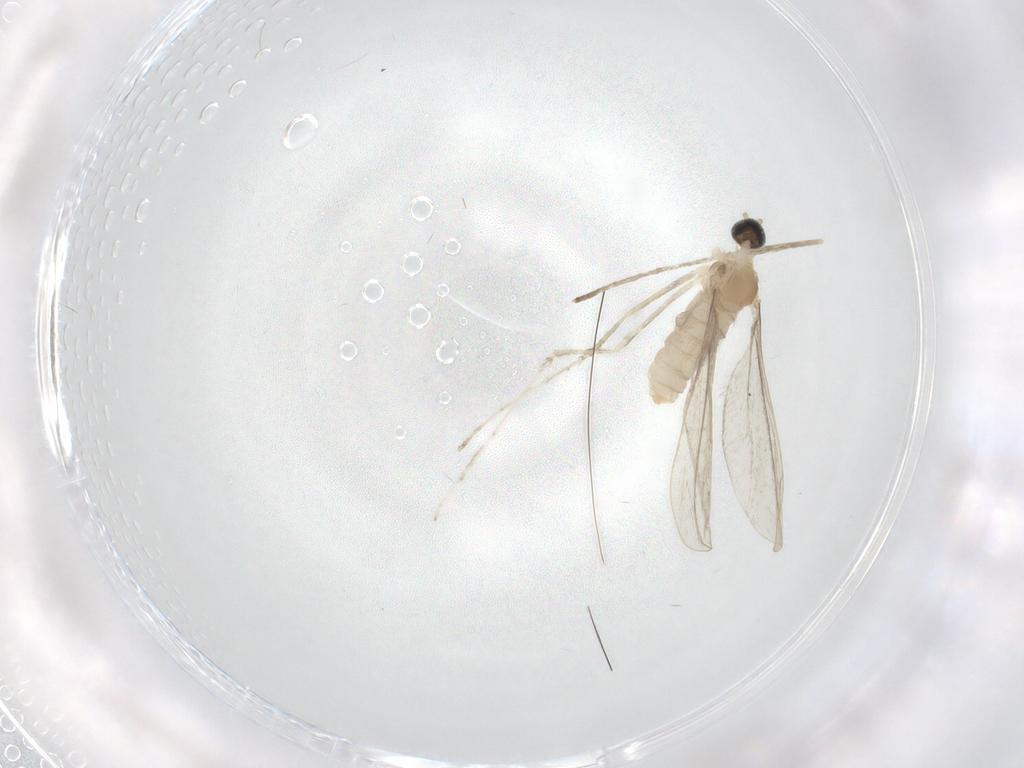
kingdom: Animalia
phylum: Arthropoda
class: Insecta
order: Diptera
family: Cecidomyiidae
